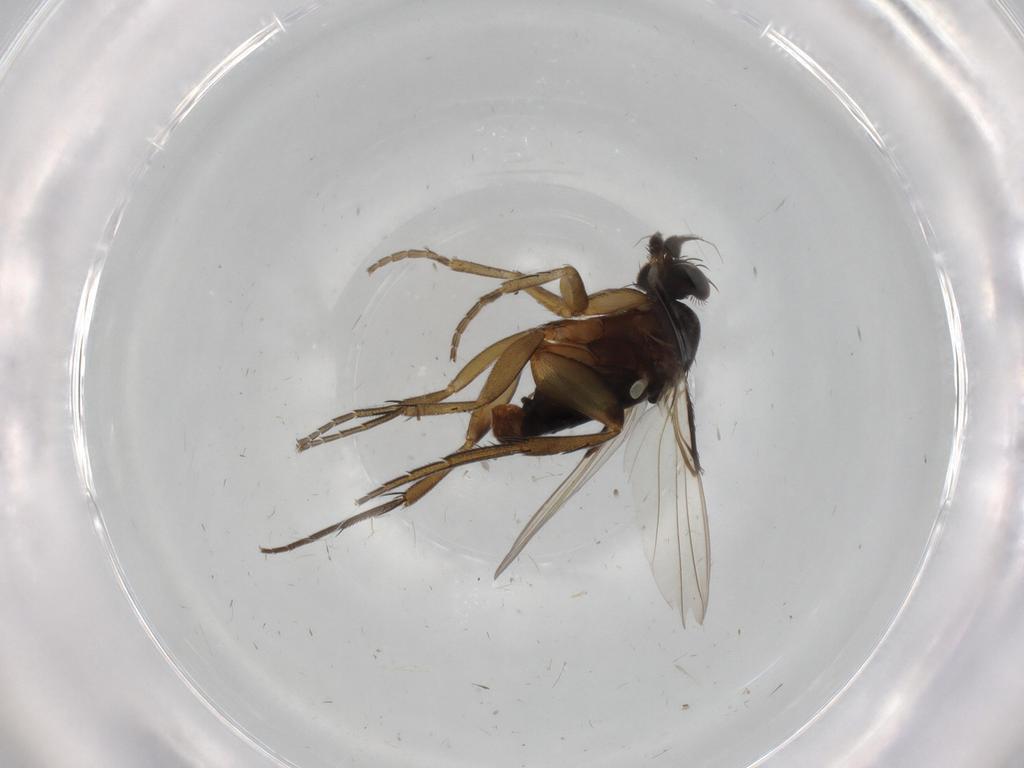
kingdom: Animalia
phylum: Arthropoda
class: Insecta
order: Diptera
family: Phoridae
